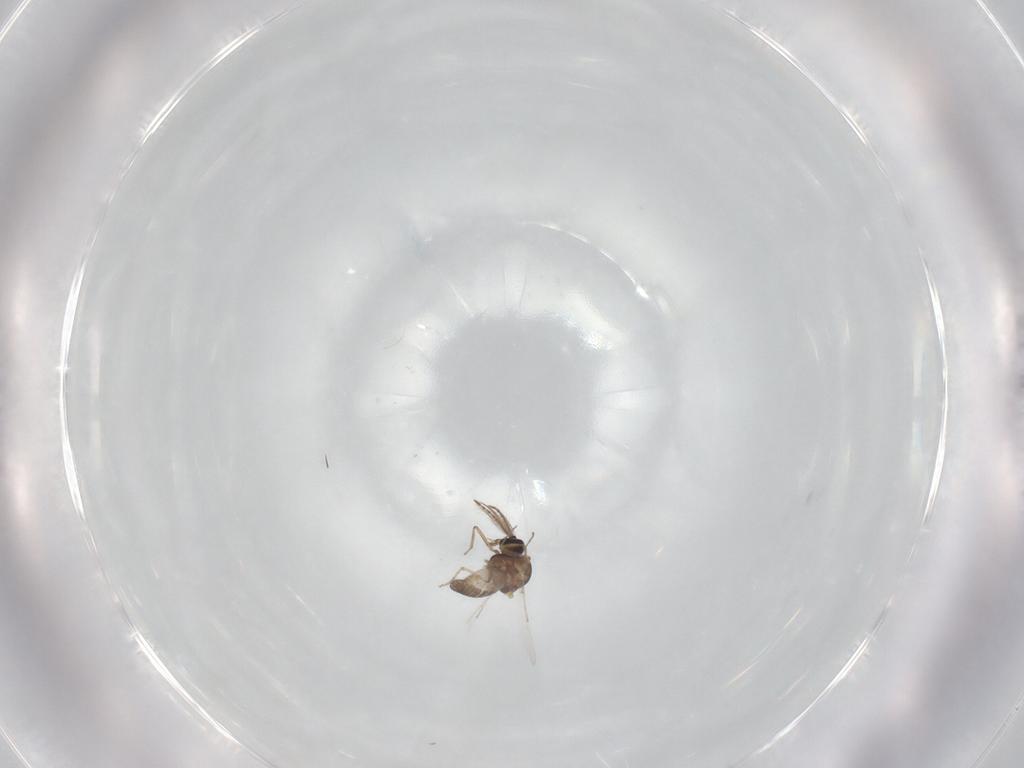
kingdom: Animalia
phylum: Arthropoda
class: Insecta
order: Diptera
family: Ceratopogonidae
